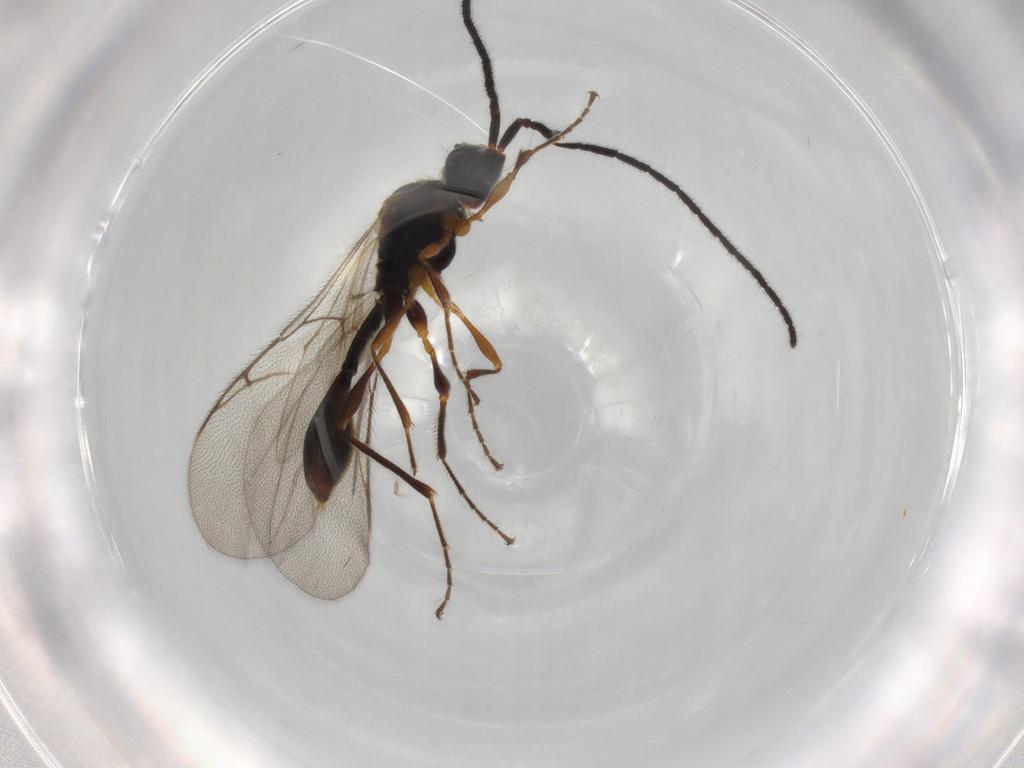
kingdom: Animalia
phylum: Arthropoda
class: Insecta
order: Hymenoptera
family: Diapriidae
